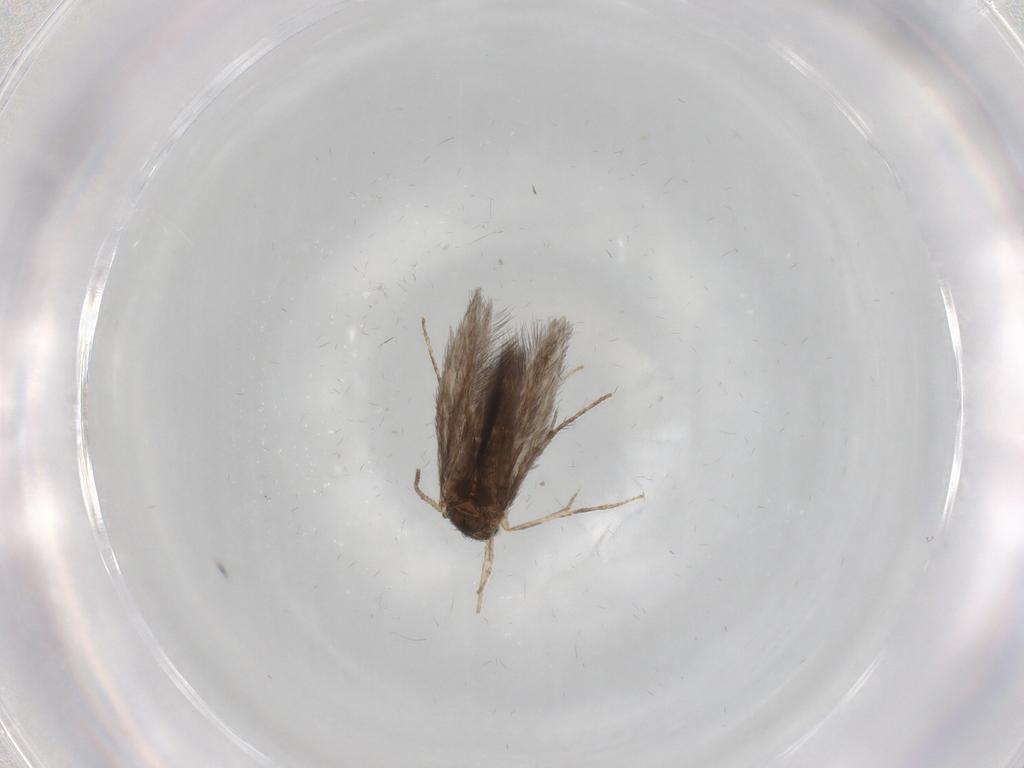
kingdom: Animalia
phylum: Arthropoda
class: Insecta
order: Trichoptera
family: Hydroptilidae
